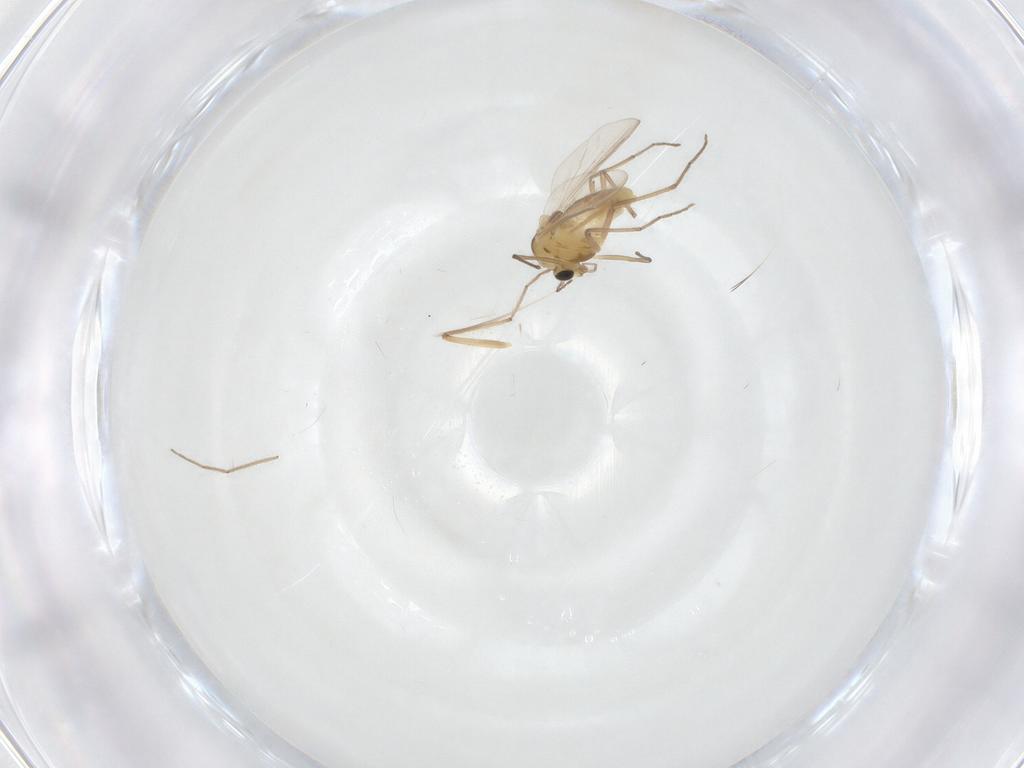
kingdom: Animalia
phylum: Arthropoda
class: Insecta
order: Diptera
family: Chironomidae
